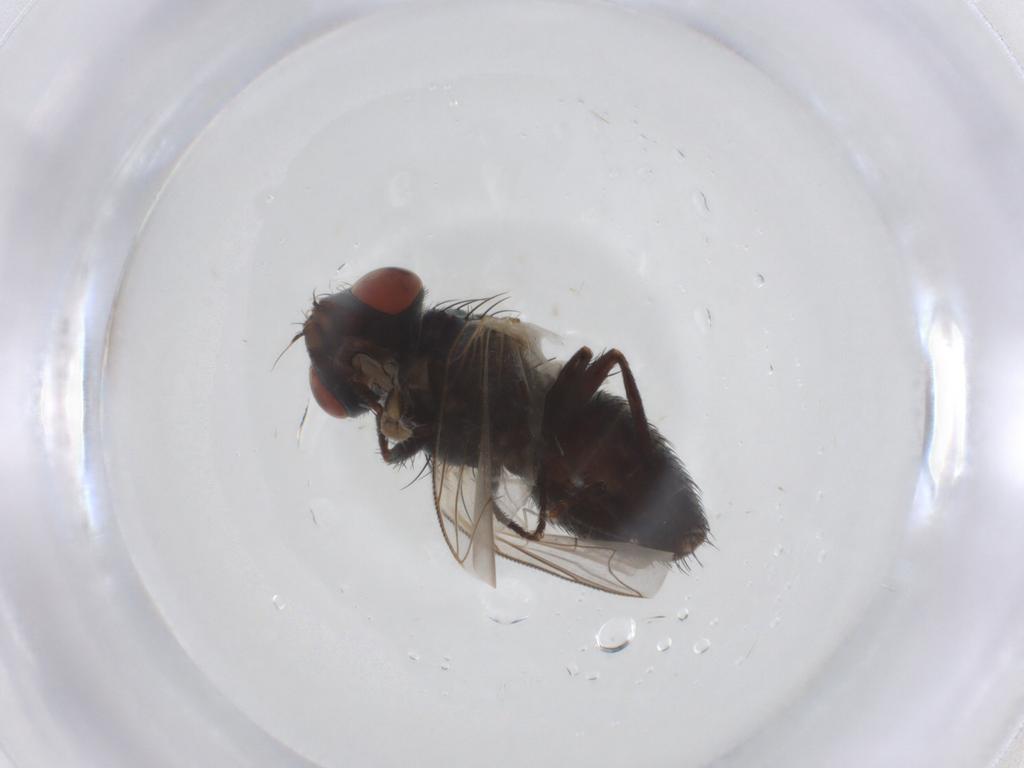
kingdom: Animalia
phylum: Arthropoda
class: Insecta
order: Diptera
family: Sarcophagidae
